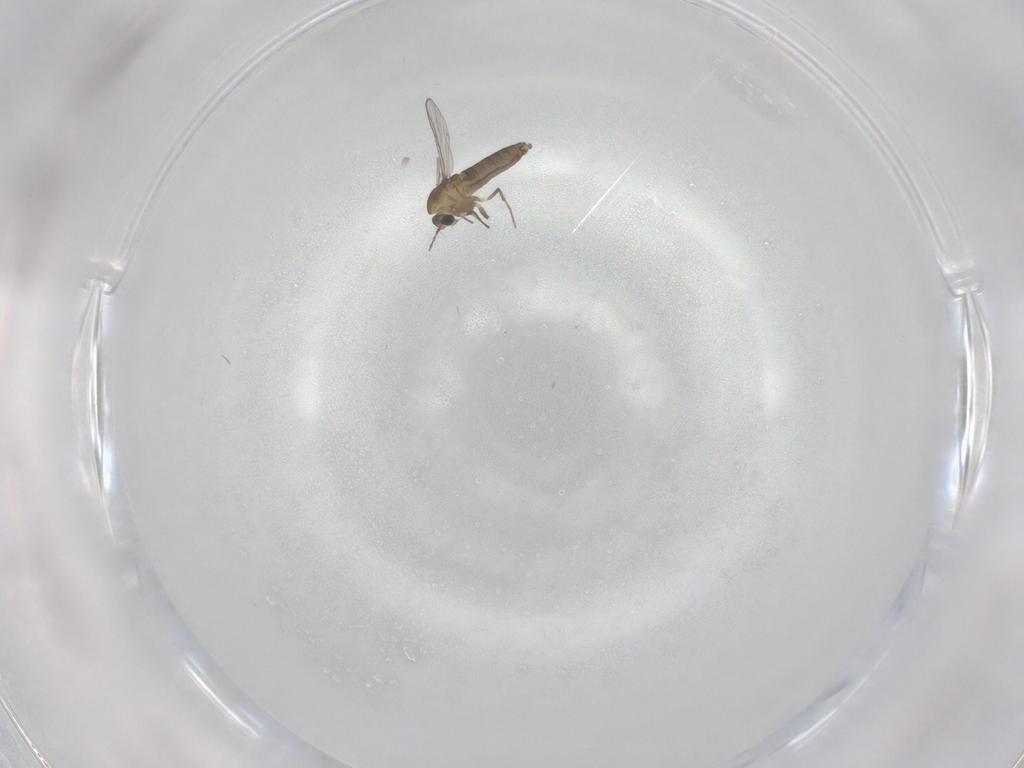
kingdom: Animalia
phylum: Arthropoda
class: Insecta
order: Diptera
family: Chironomidae
